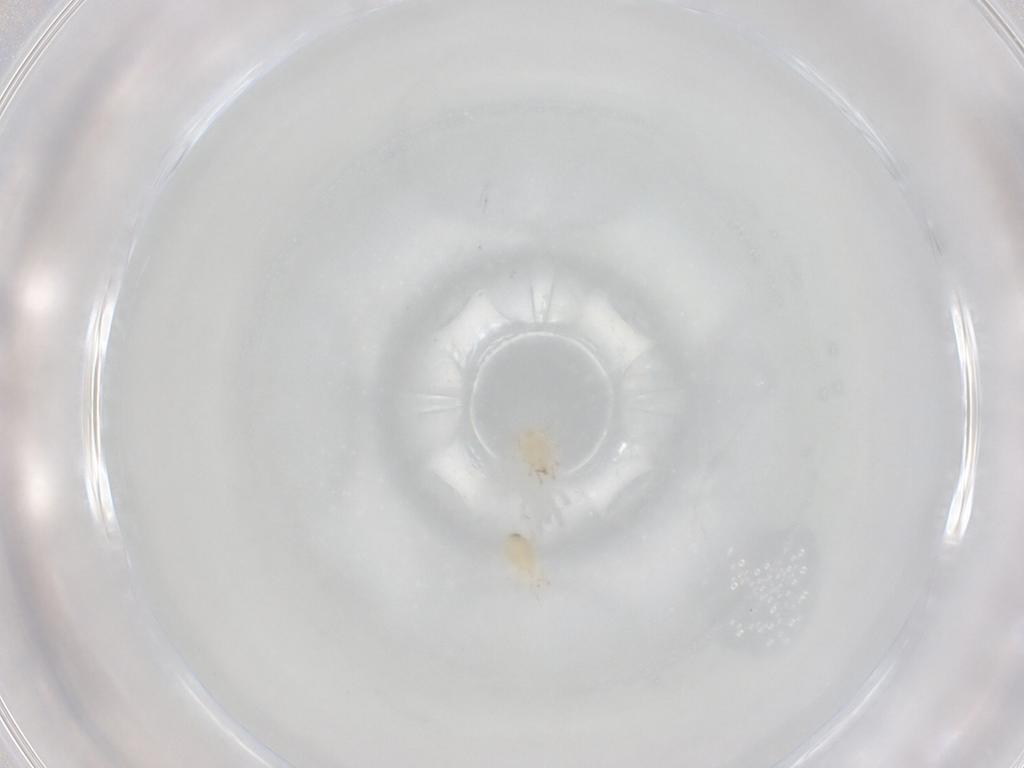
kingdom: Animalia
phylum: Arthropoda
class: Arachnida
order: Mesostigmata
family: Phytoseiidae
